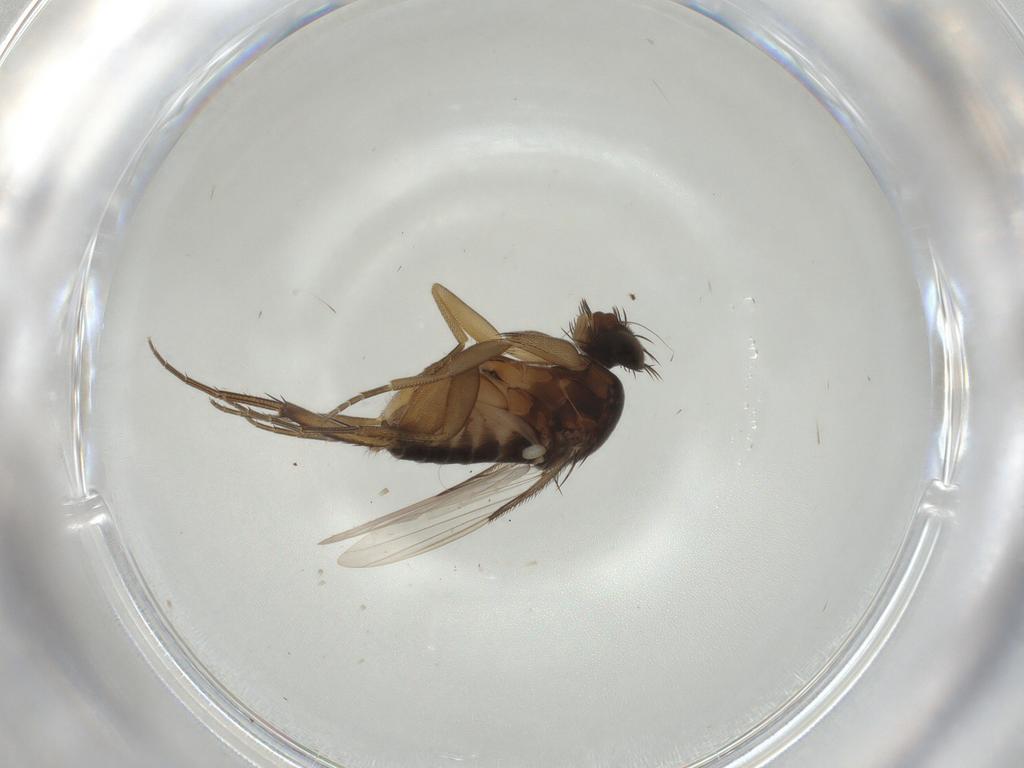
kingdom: Animalia
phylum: Arthropoda
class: Insecta
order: Diptera
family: Phoridae
